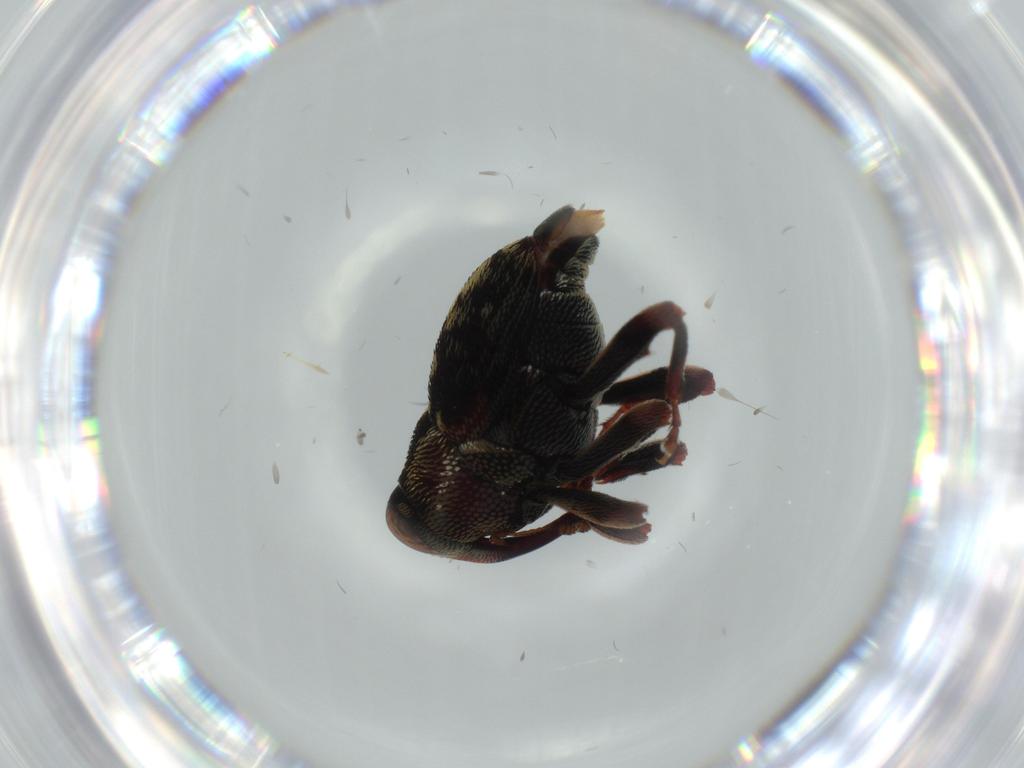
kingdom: Animalia
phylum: Arthropoda
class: Insecta
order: Coleoptera
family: Curculionidae
